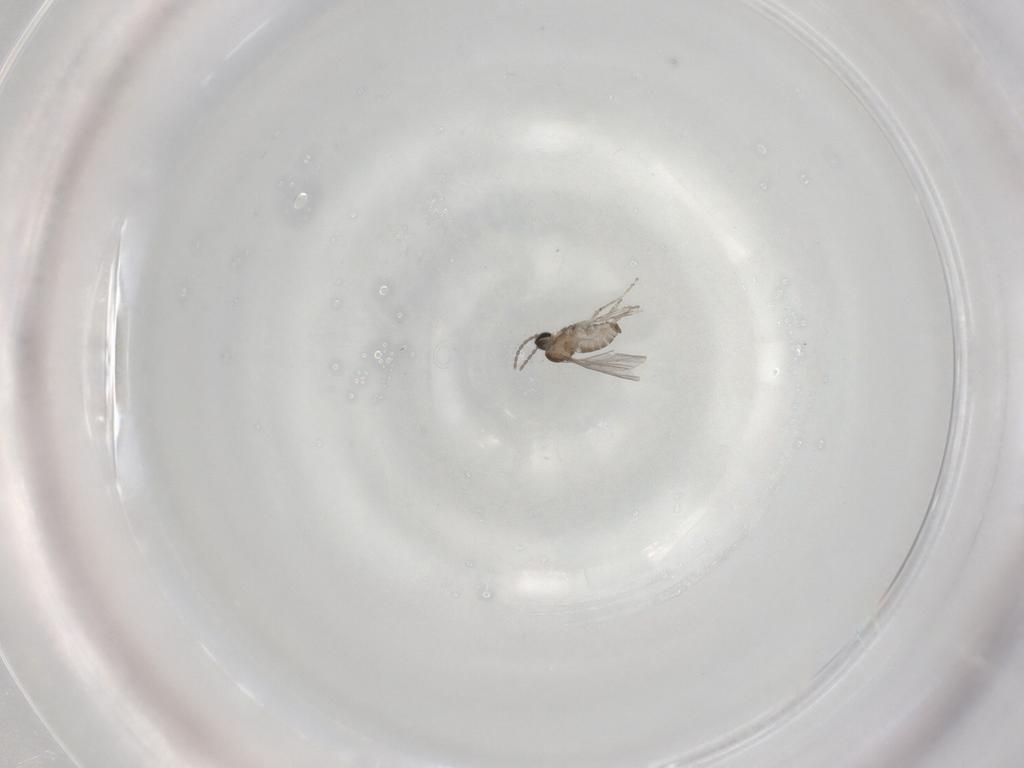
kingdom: Animalia
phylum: Arthropoda
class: Insecta
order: Diptera
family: Cecidomyiidae
